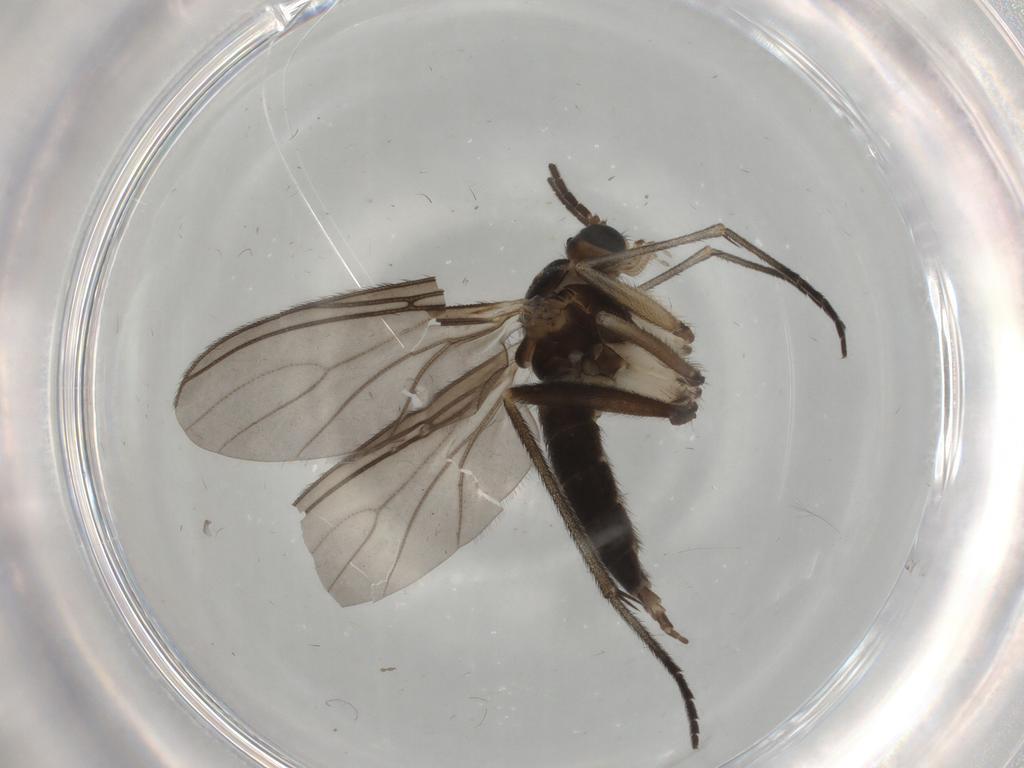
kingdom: Animalia
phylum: Arthropoda
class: Insecta
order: Diptera
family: Sciaridae
